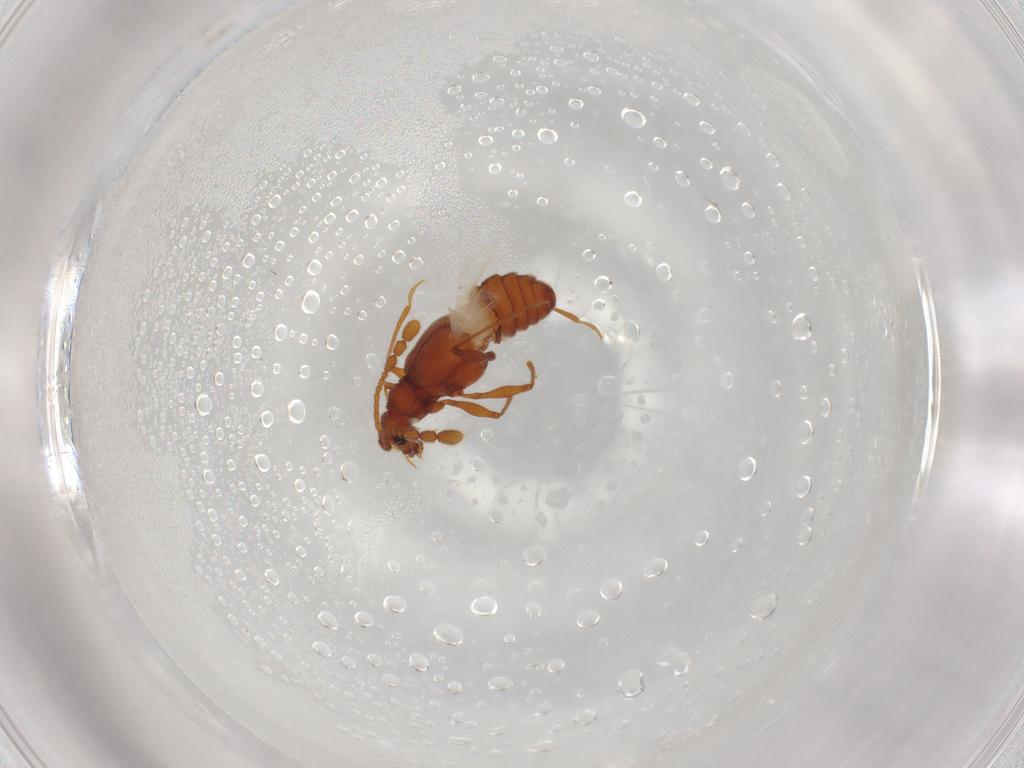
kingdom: Animalia
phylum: Arthropoda
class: Insecta
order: Coleoptera
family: Staphylinidae
